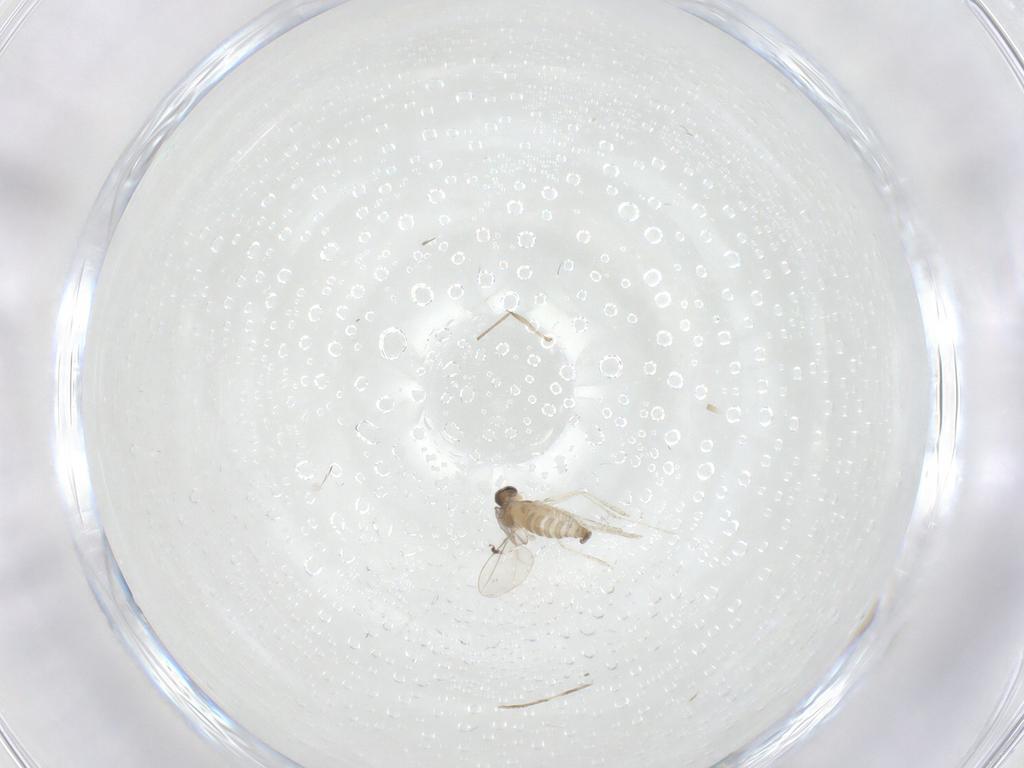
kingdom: Animalia
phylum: Arthropoda
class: Insecta
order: Diptera
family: Cecidomyiidae
